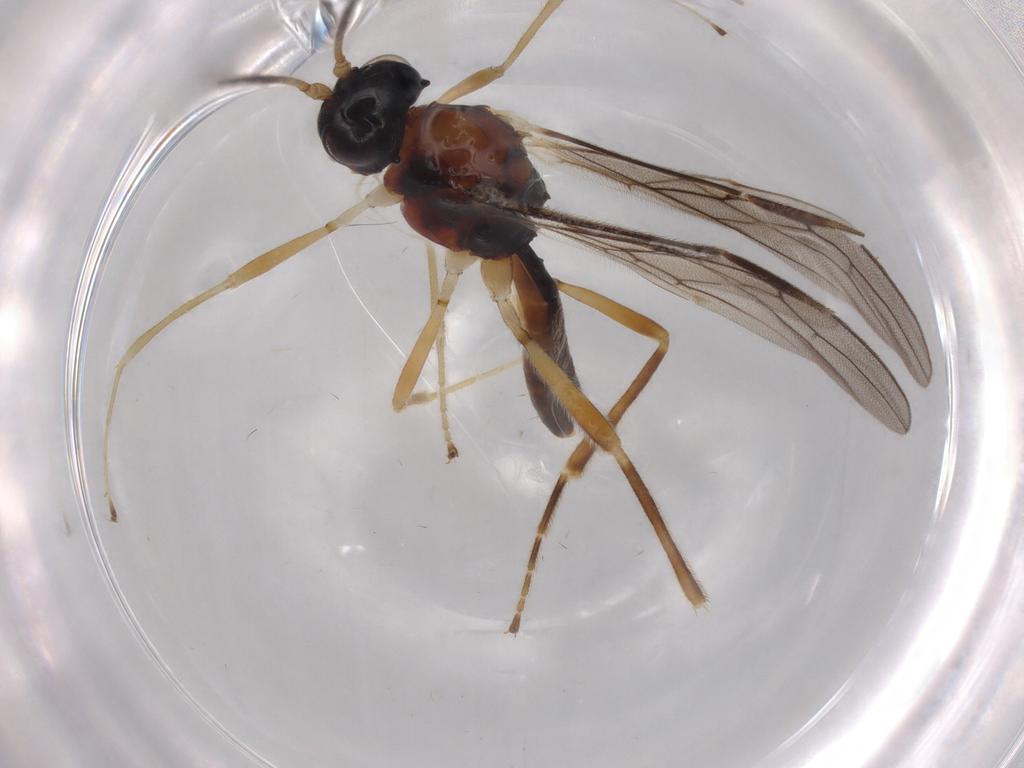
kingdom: Animalia
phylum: Arthropoda
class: Insecta
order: Hymenoptera
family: Braconidae
